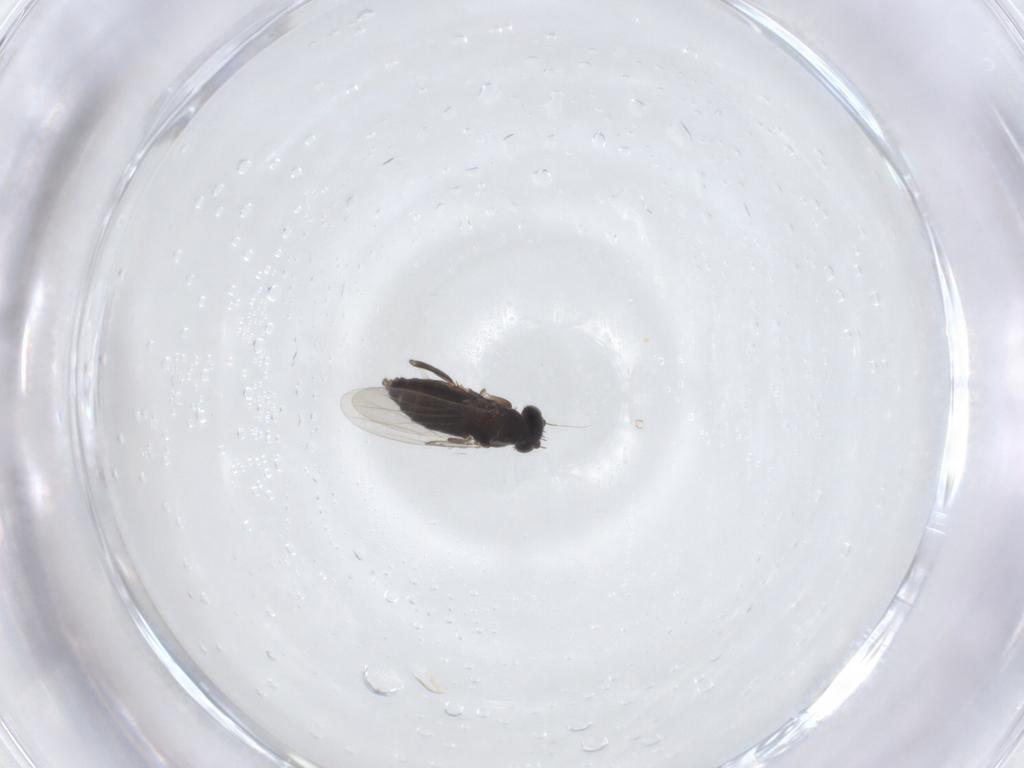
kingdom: Animalia
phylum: Arthropoda
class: Insecta
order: Diptera
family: Phoridae
